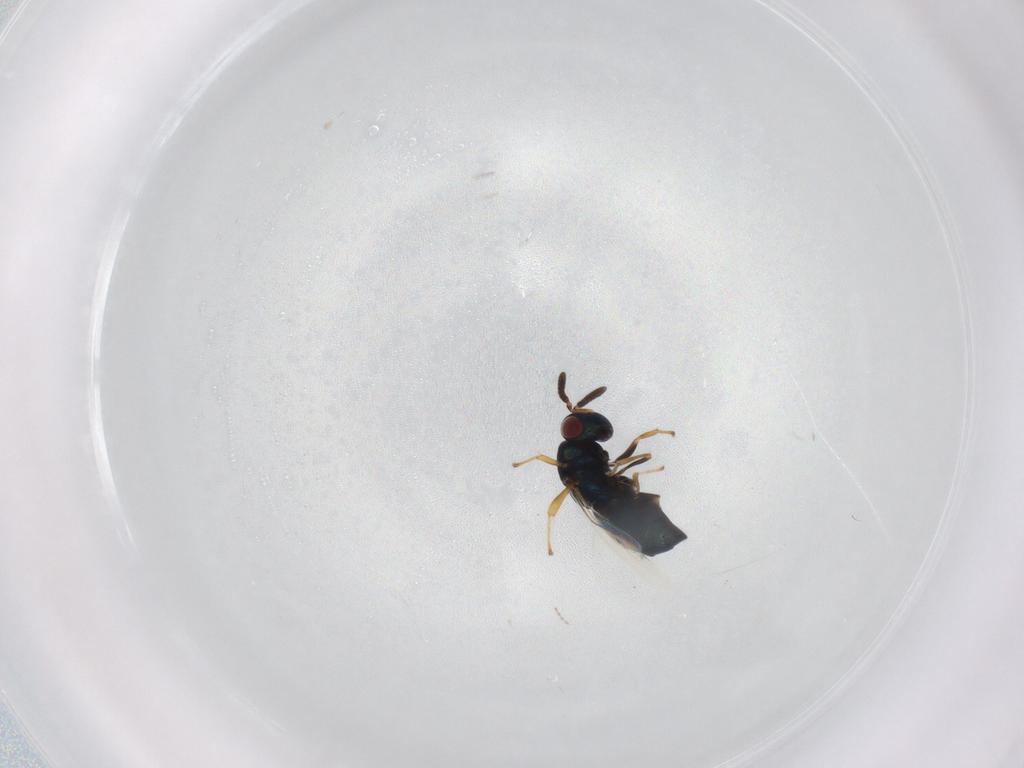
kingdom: Animalia
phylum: Arthropoda
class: Insecta
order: Hymenoptera
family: Pteromalidae
